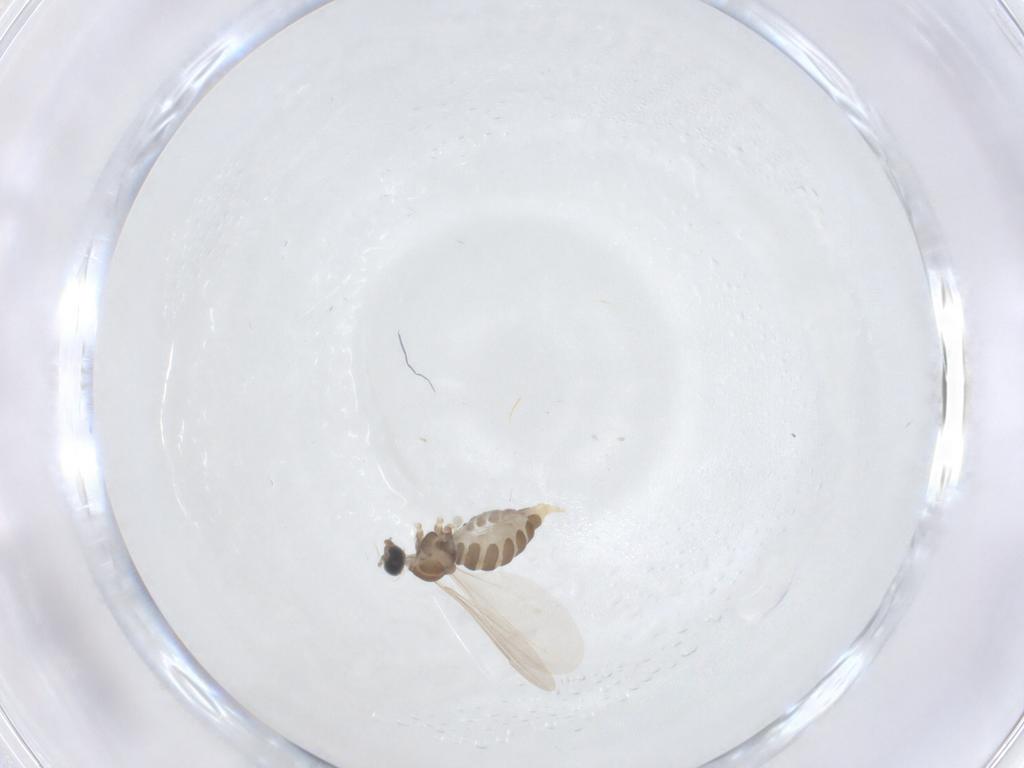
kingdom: Animalia
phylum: Arthropoda
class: Insecta
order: Diptera
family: Cecidomyiidae
